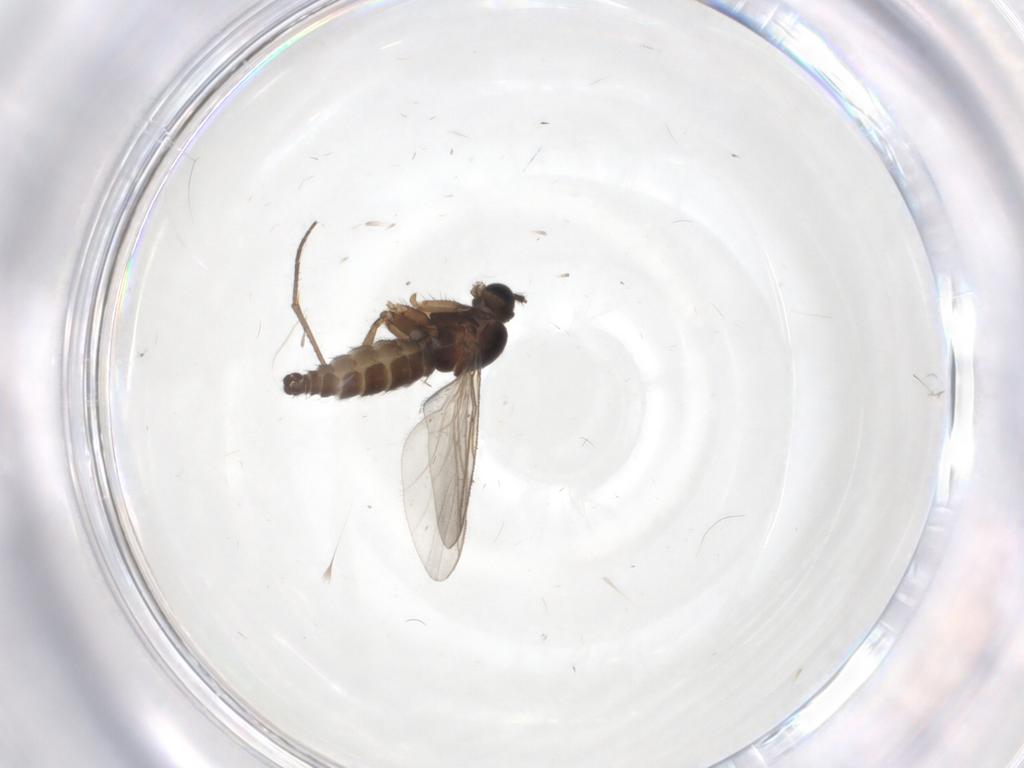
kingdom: Animalia
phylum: Arthropoda
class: Insecta
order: Diptera
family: Sciaridae
